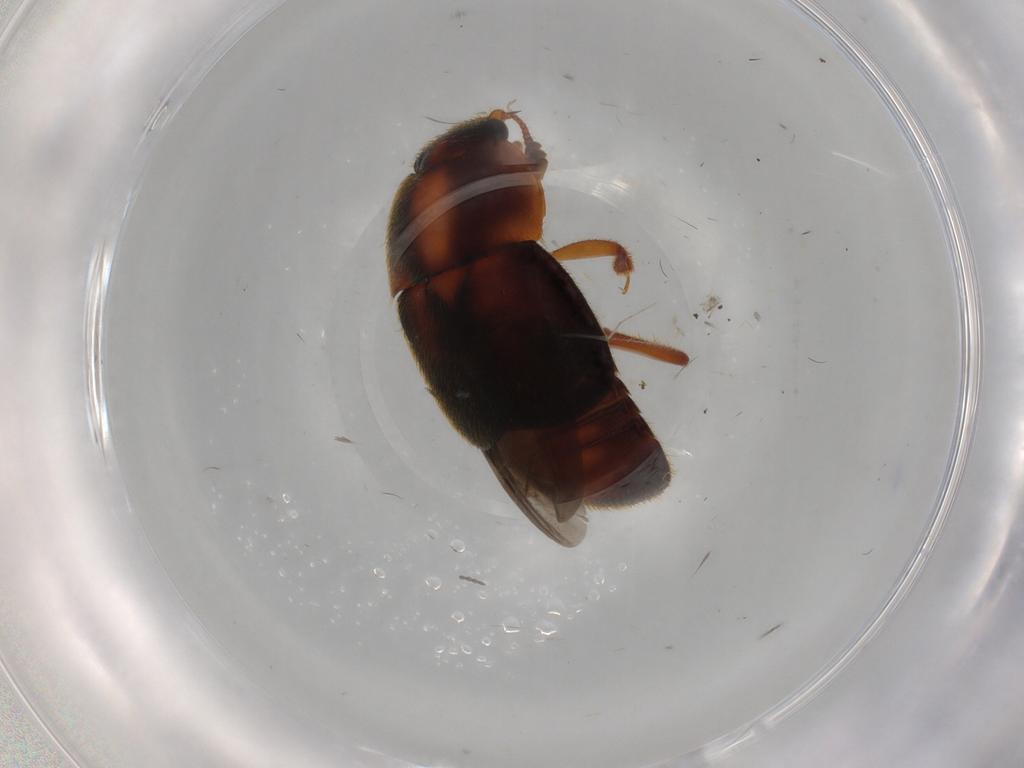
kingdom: Animalia
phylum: Arthropoda
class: Insecta
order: Coleoptera
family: Nitidulidae
